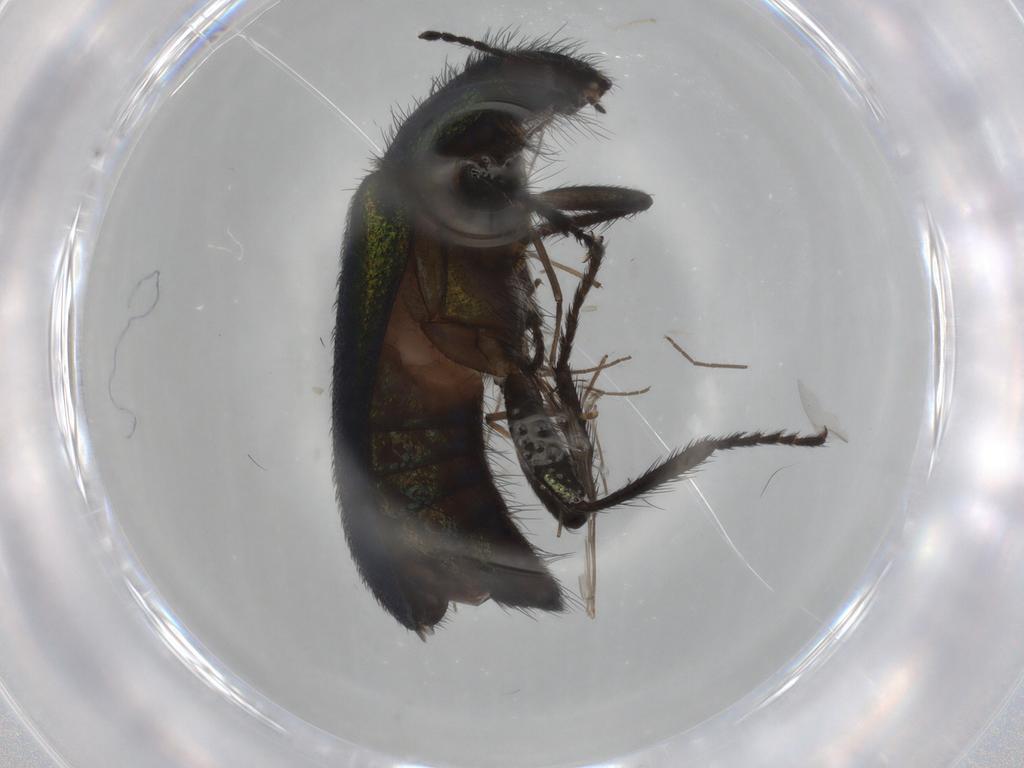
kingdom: Animalia
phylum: Arthropoda
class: Insecta
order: Coleoptera
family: Melyridae
